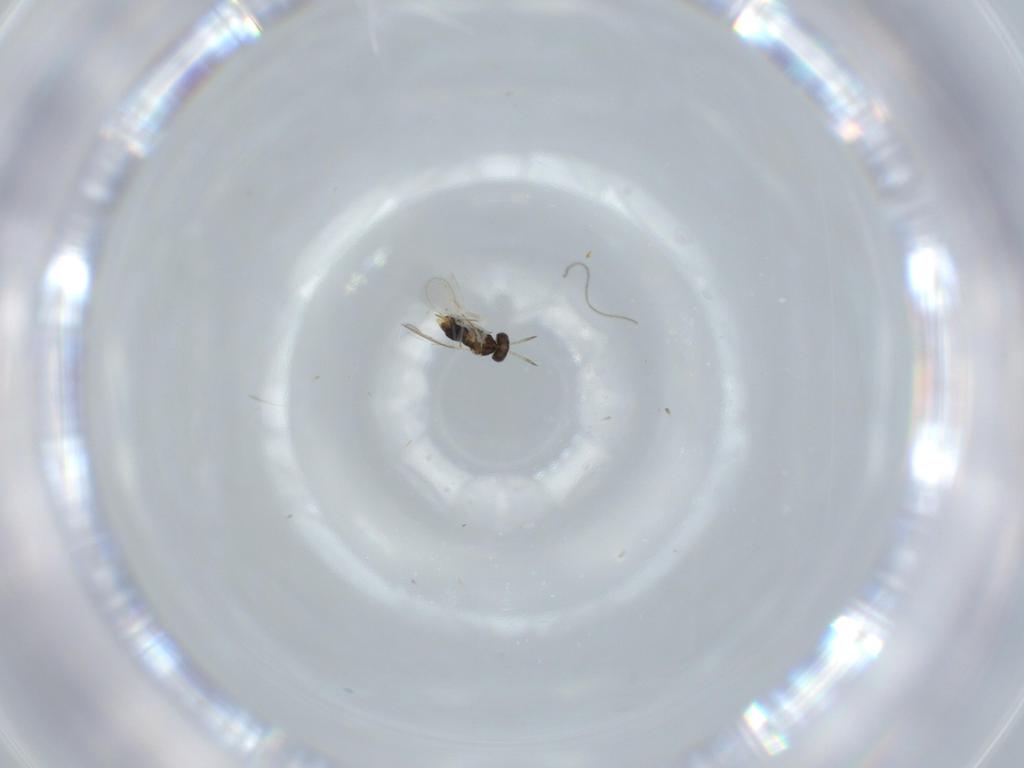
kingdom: Animalia
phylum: Arthropoda
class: Insecta
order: Hymenoptera
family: Aphelinidae
